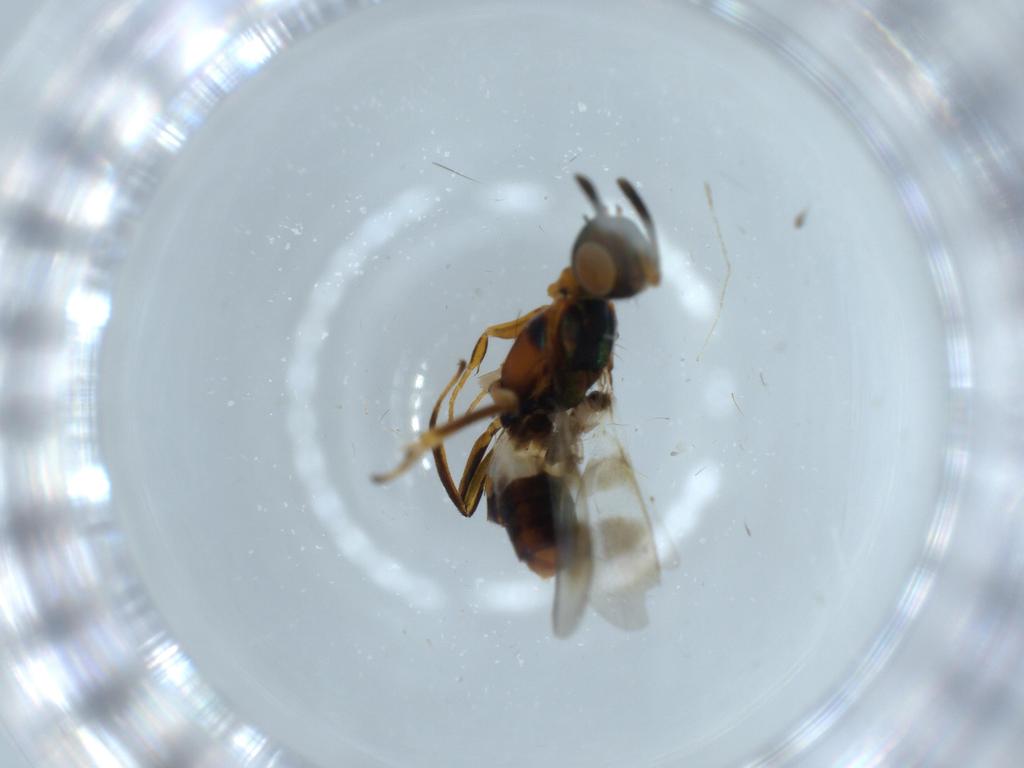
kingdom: Animalia
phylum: Arthropoda
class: Insecta
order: Hymenoptera
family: Eupelmidae
